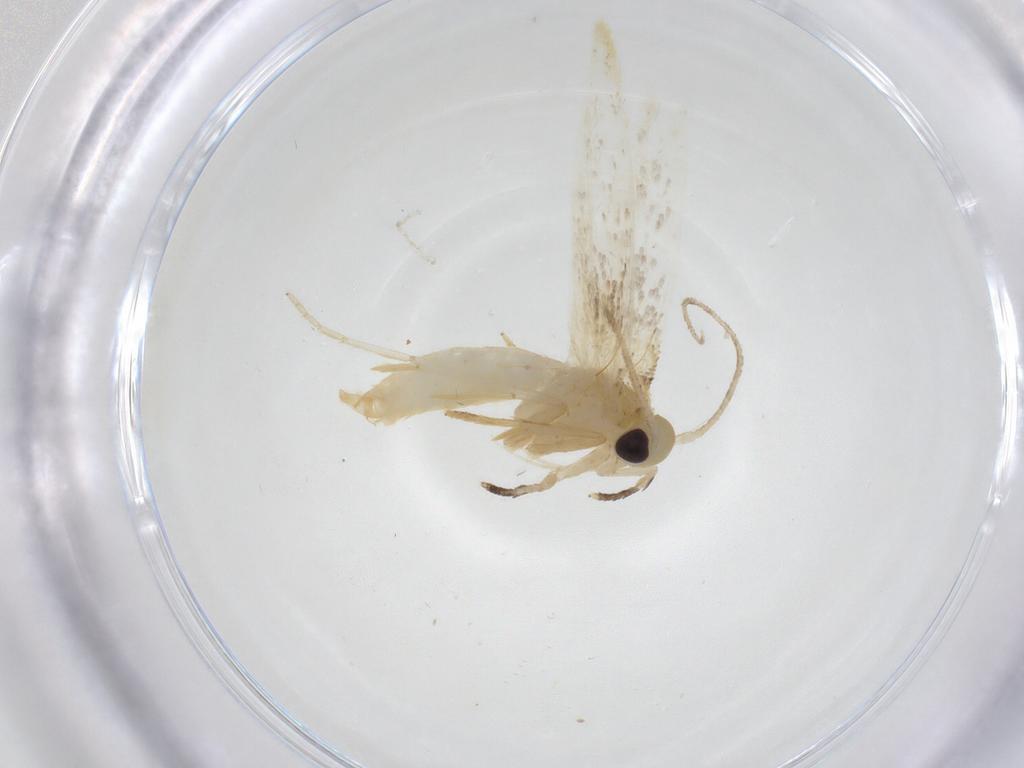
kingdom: Animalia
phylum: Arthropoda
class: Insecta
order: Lepidoptera
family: Erebidae
